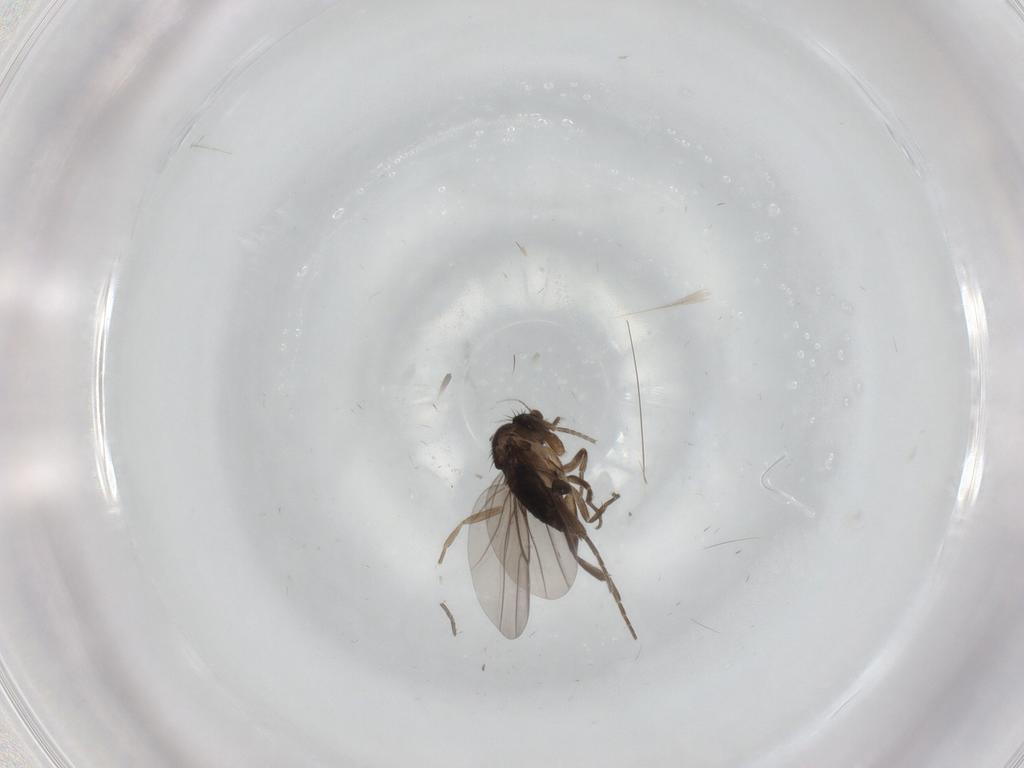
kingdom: Animalia
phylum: Arthropoda
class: Insecta
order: Diptera
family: Phoridae
